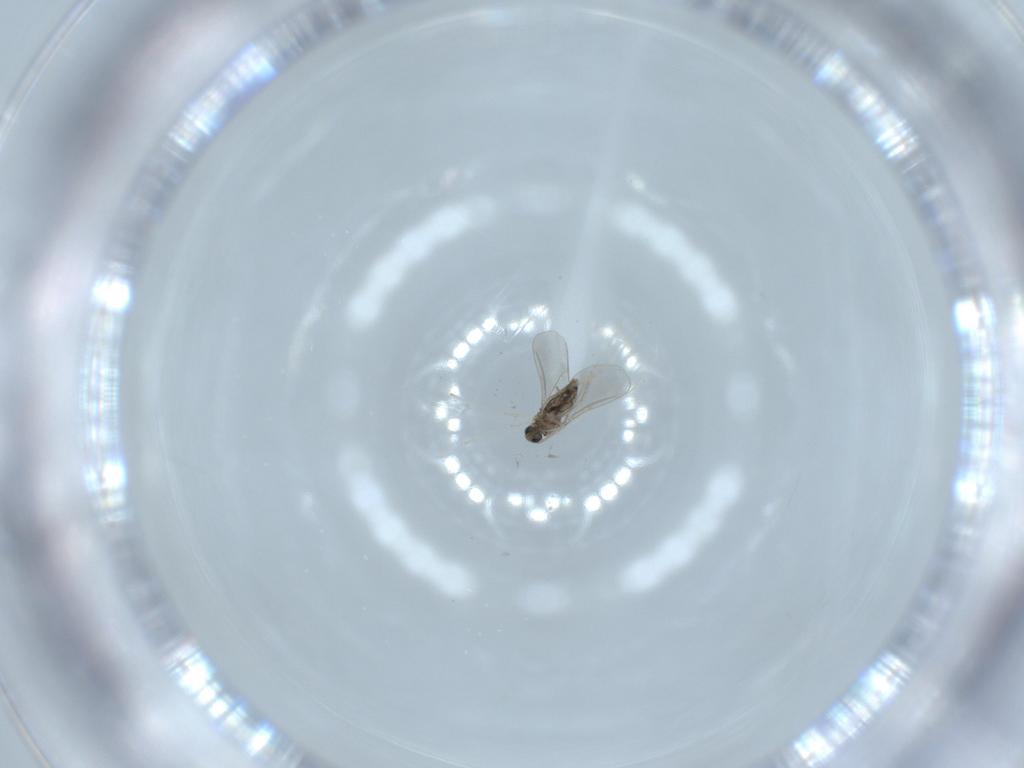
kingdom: Animalia
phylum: Arthropoda
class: Insecta
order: Diptera
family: Cecidomyiidae
